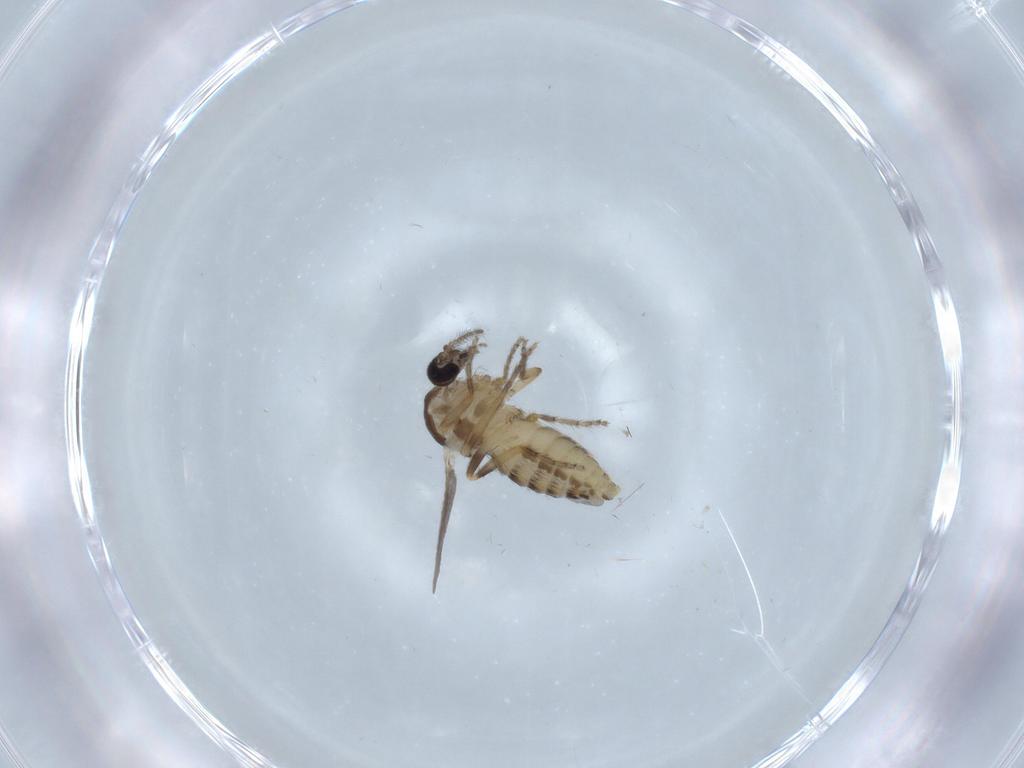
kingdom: Animalia
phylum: Arthropoda
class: Insecta
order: Diptera
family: Ceratopogonidae
